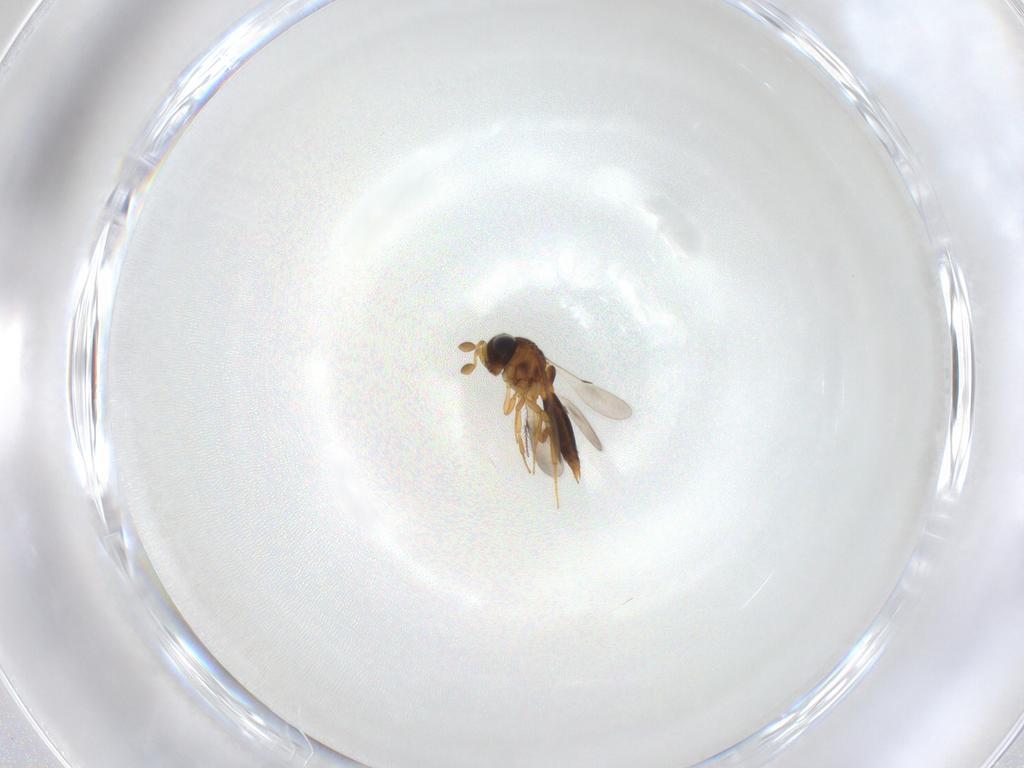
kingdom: Animalia
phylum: Arthropoda
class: Insecta
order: Hymenoptera
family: Scelionidae
